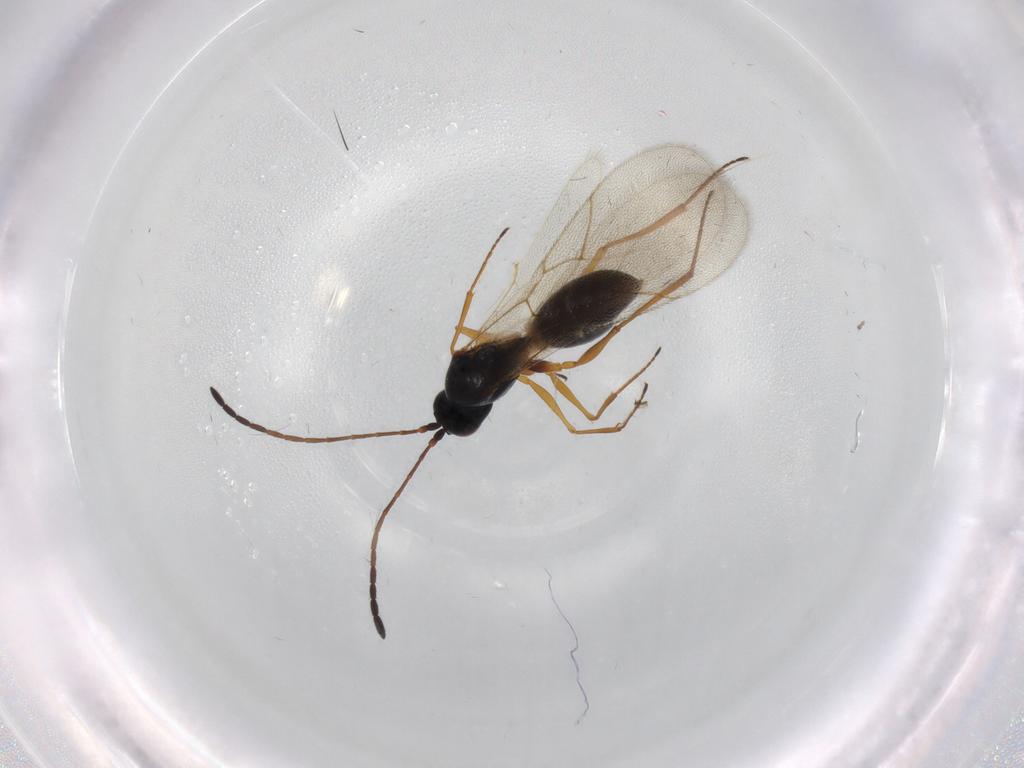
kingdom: Animalia
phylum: Arthropoda
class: Insecta
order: Hymenoptera
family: Figitidae
